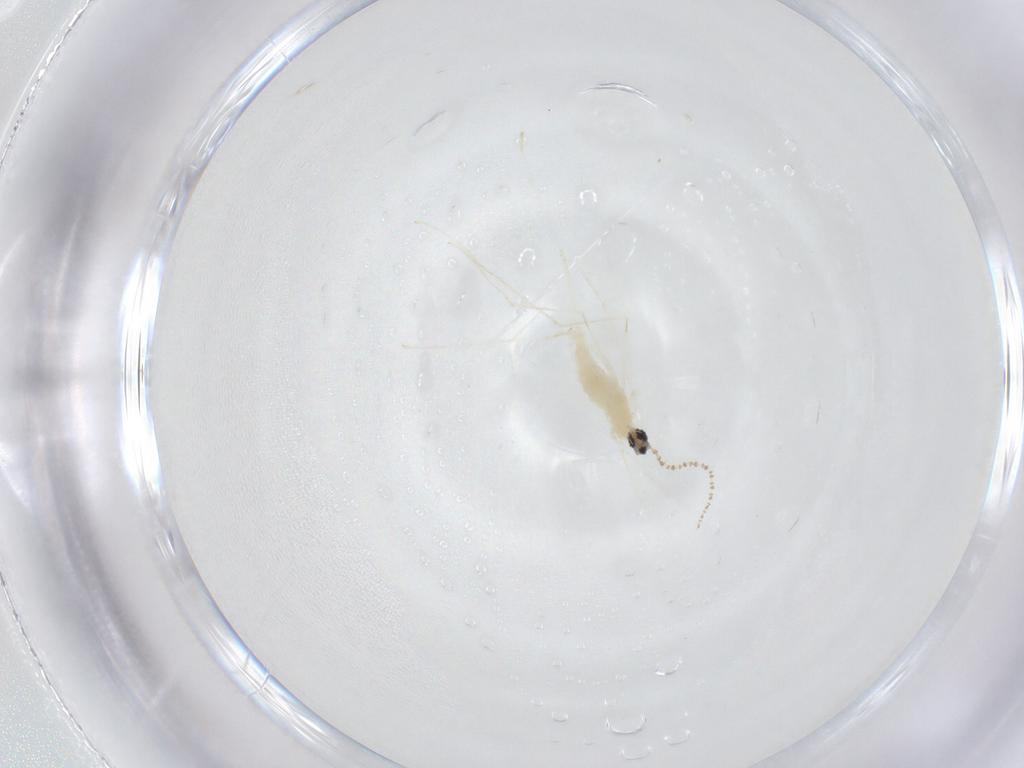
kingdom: Animalia
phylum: Arthropoda
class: Insecta
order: Diptera
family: Cecidomyiidae
